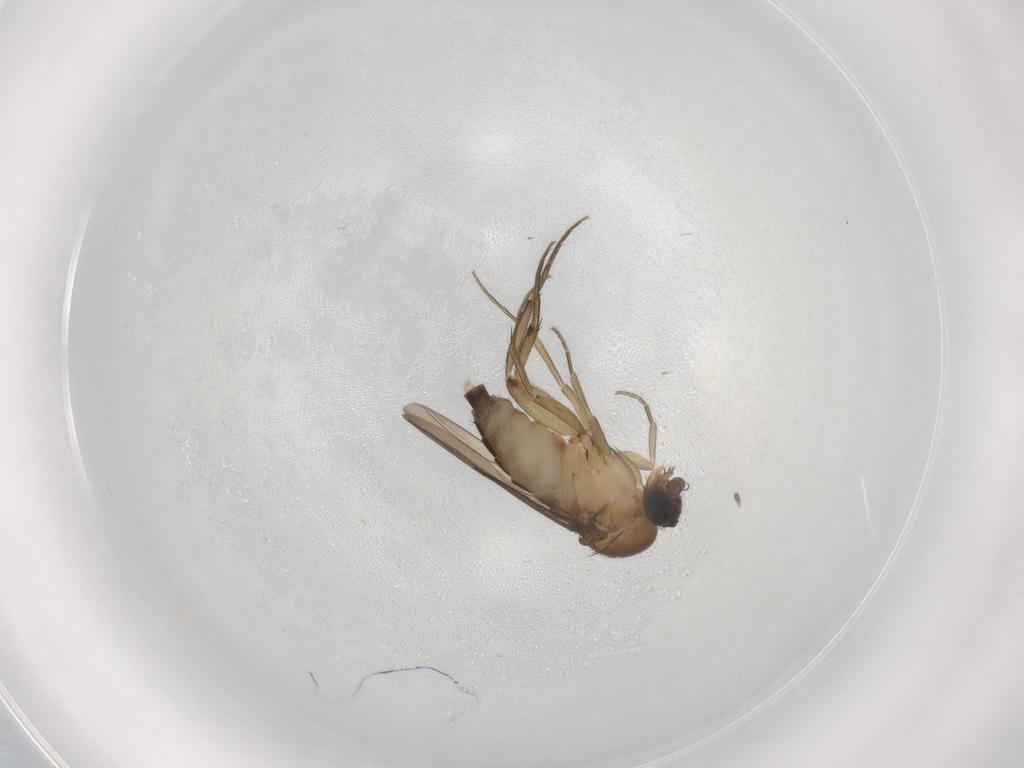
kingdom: Animalia
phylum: Arthropoda
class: Insecta
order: Diptera
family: Phoridae
